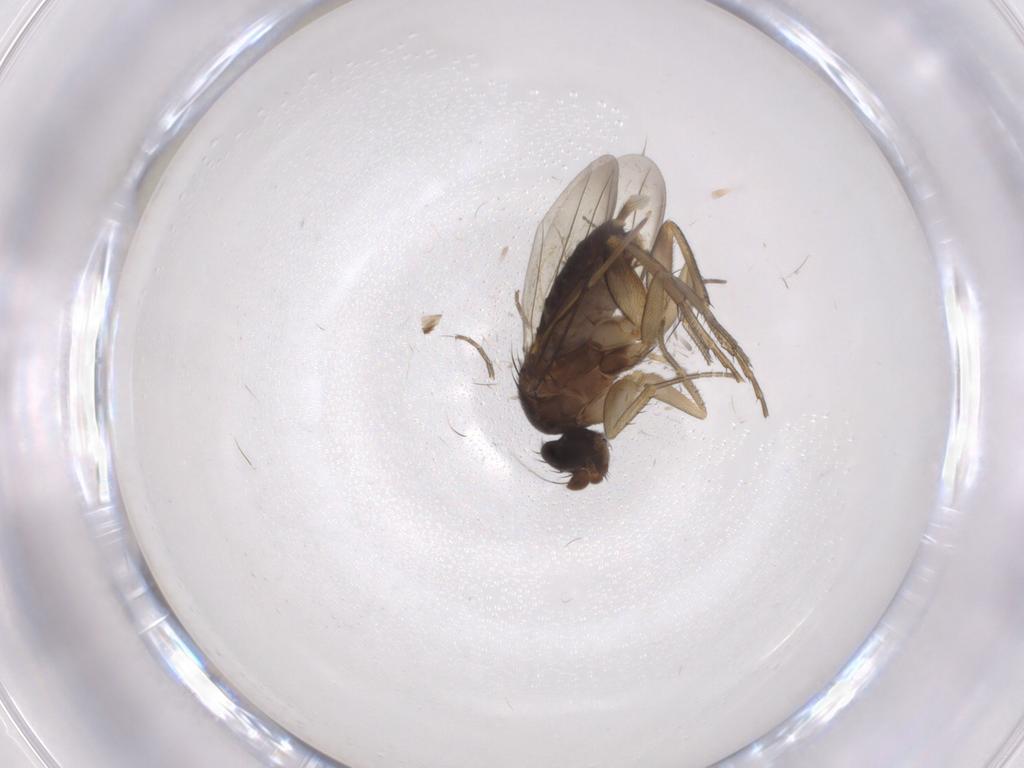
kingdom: Animalia
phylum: Arthropoda
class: Insecta
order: Diptera
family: Phoridae
